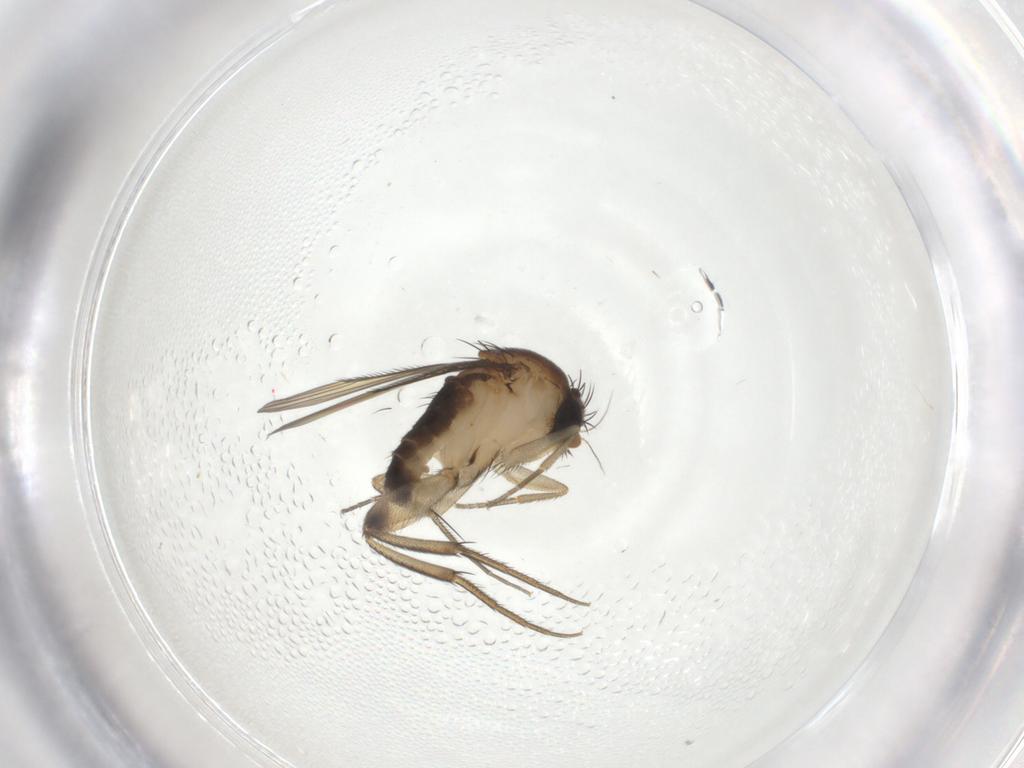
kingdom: Animalia
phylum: Arthropoda
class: Insecta
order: Diptera
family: Phoridae
